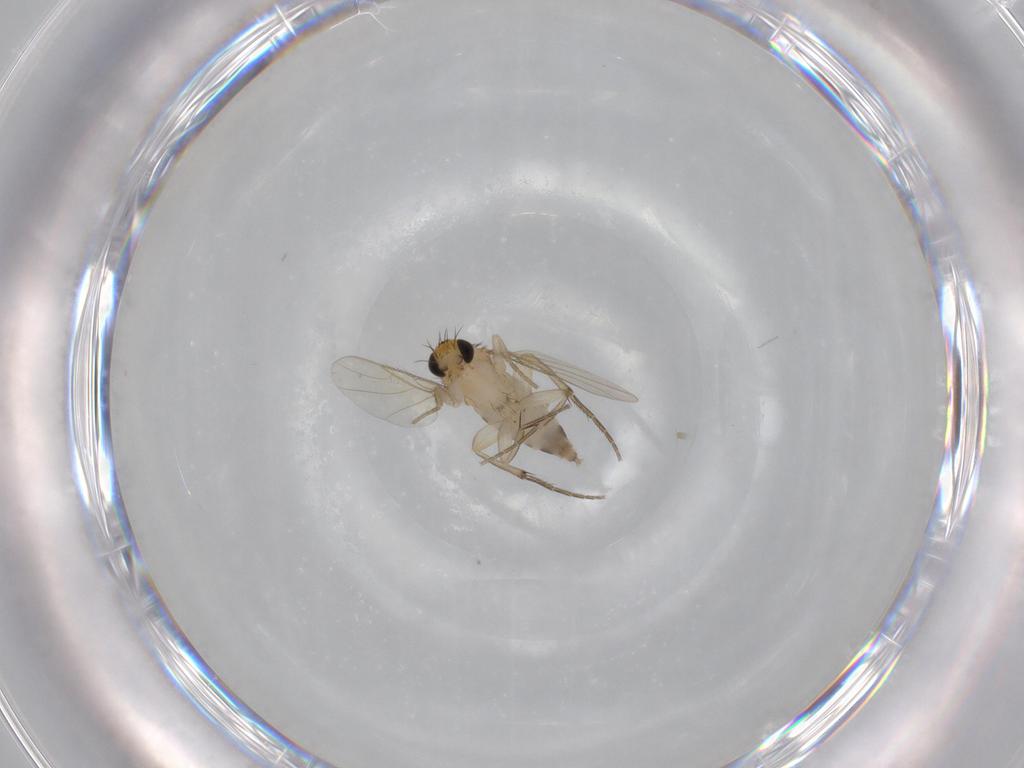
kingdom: Animalia
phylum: Arthropoda
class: Insecta
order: Diptera
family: Phoridae
